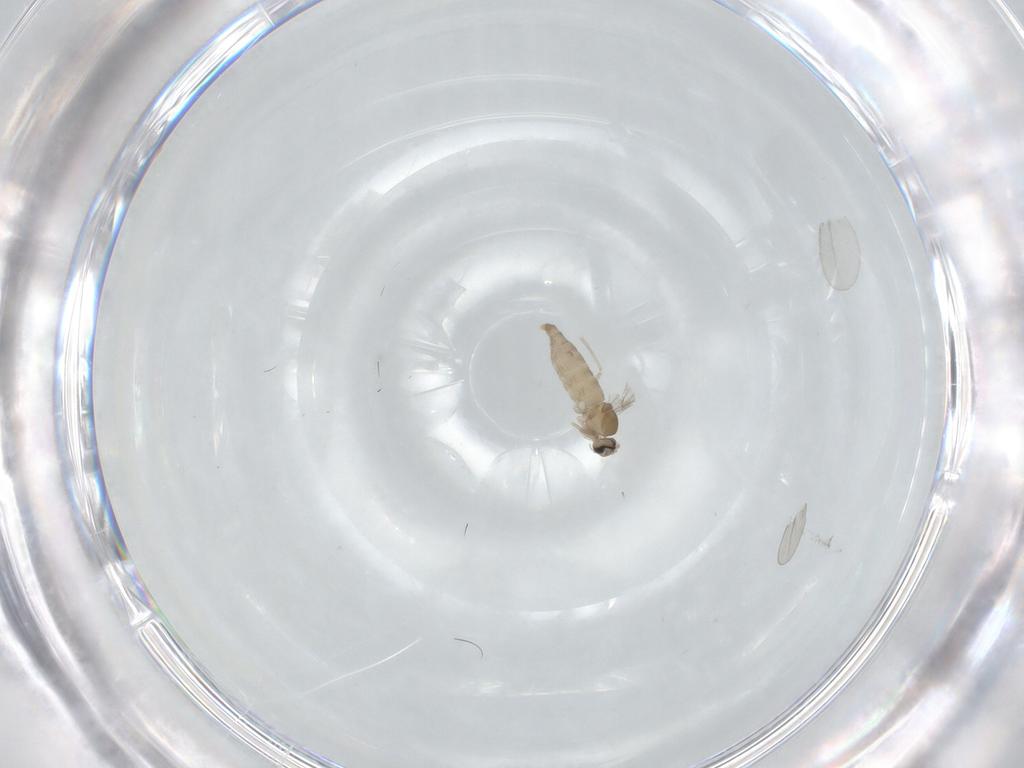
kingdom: Animalia
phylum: Arthropoda
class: Insecta
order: Diptera
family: Cecidomyiidae
